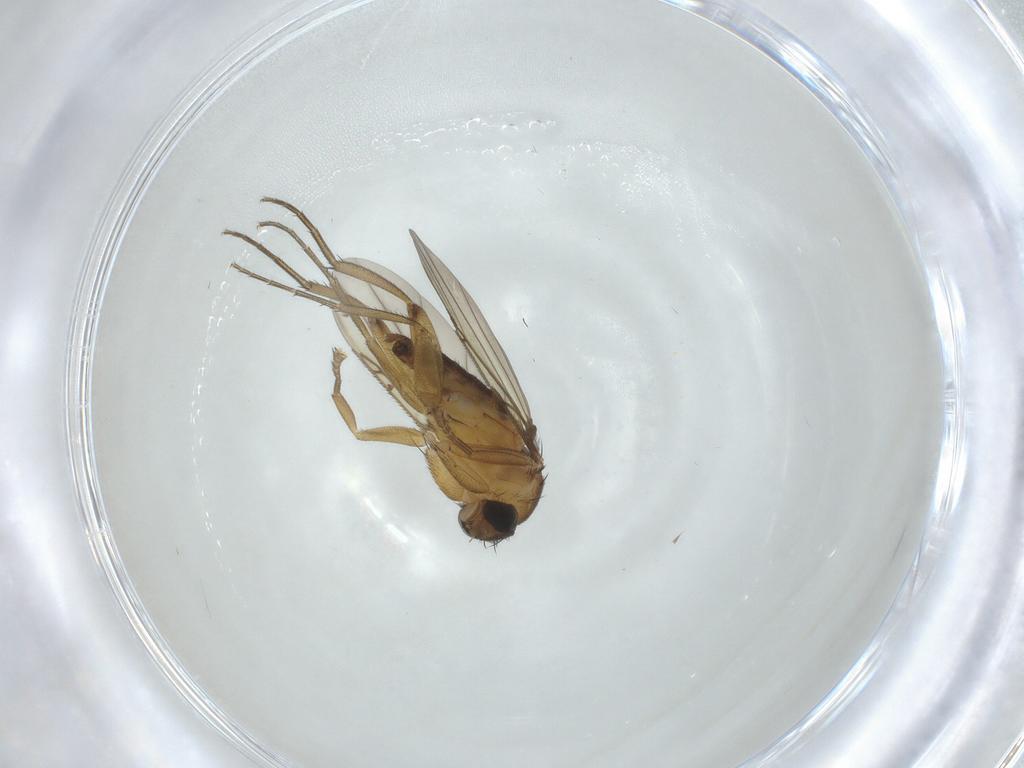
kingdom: Animalia
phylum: Arthropoda
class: Insecta
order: Diptera
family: Phoridae
